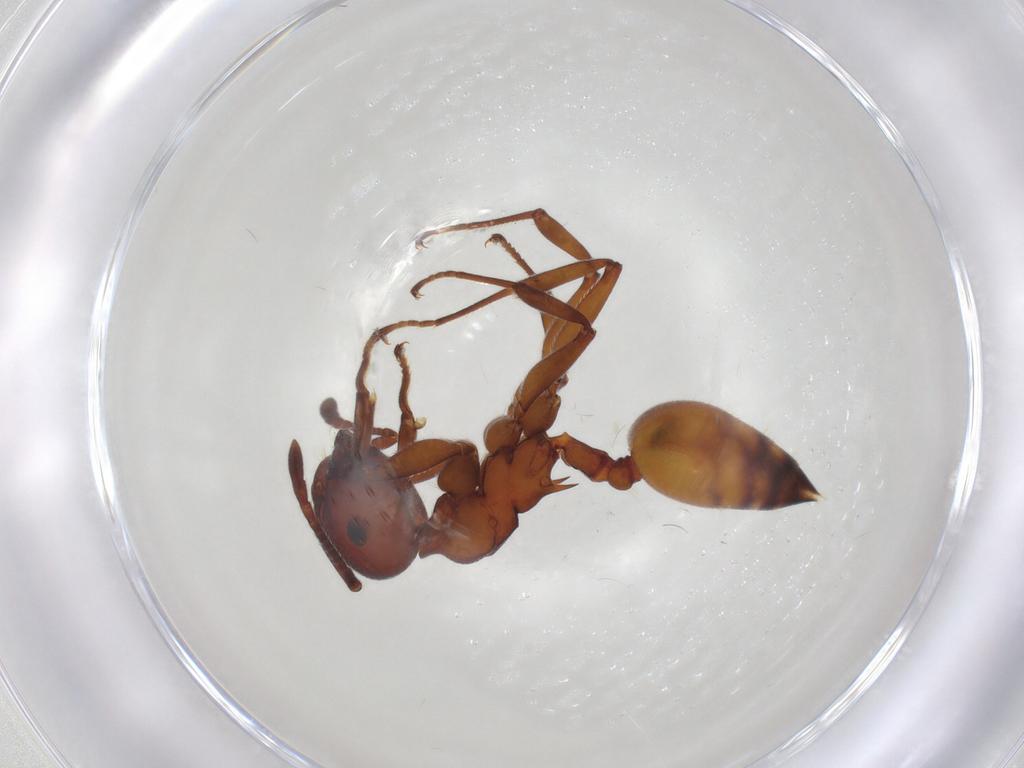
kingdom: Animalia
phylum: Arthropoda
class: Insecta
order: Hymenoptera
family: Formicidae
